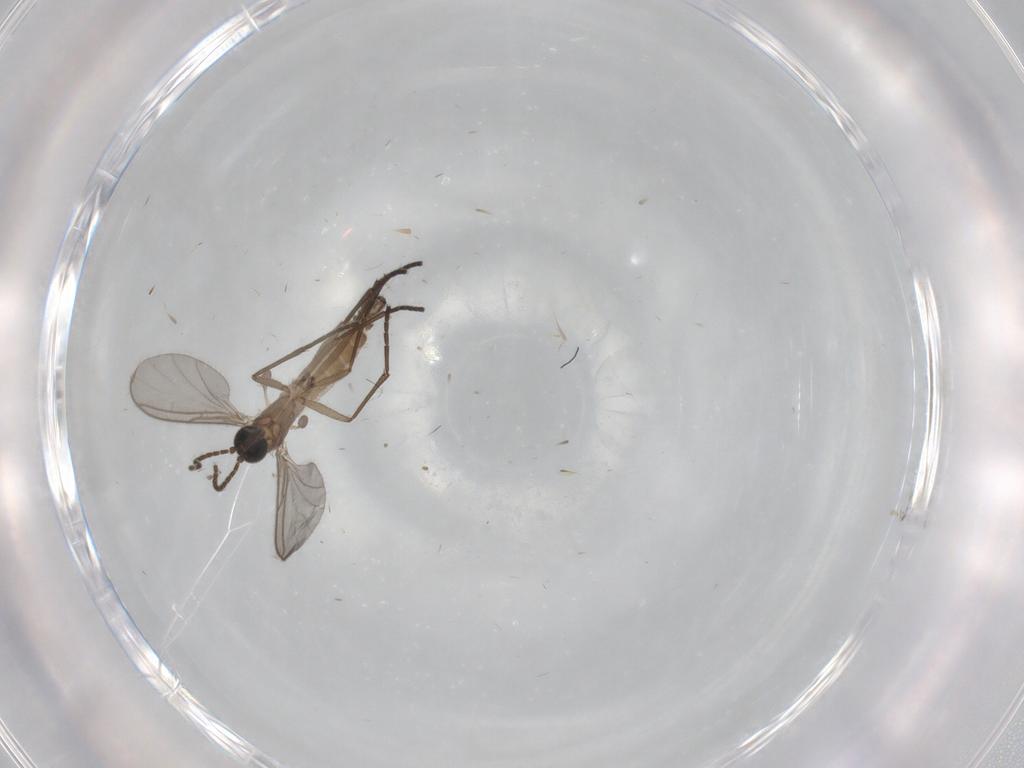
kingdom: Animalia
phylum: Arthropoda
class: Insecta
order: Diptera
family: Sciaridae
